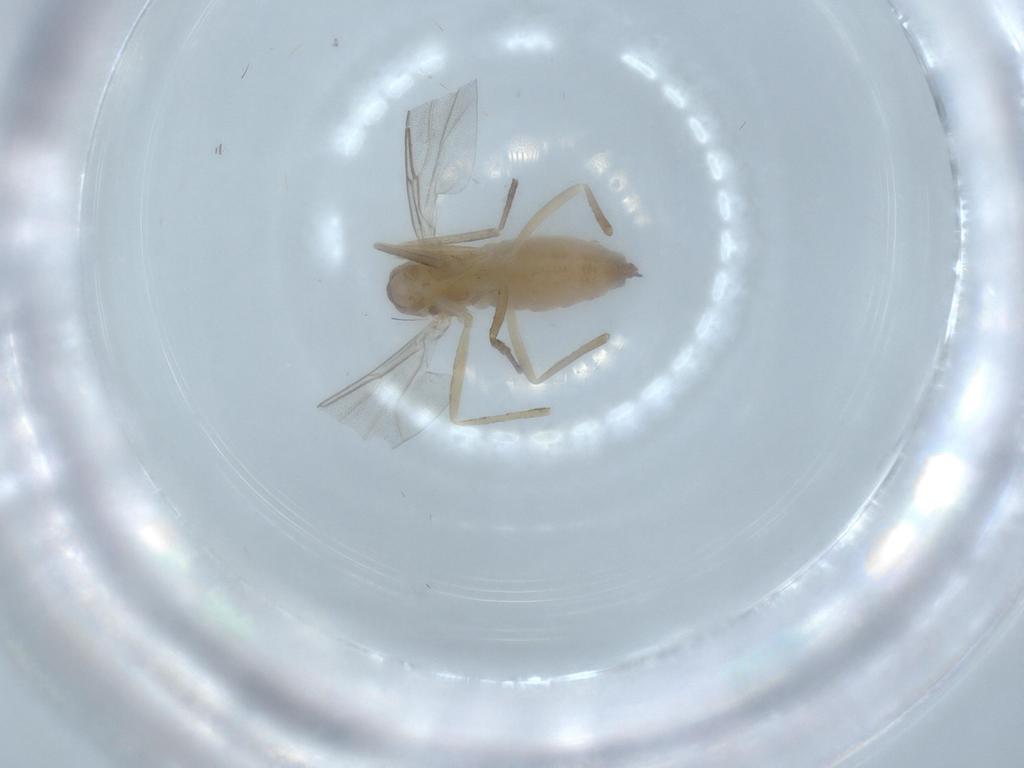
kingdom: Animalia
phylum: Arthropoda
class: Insecta
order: Diptera
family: Cecidomyiidae
